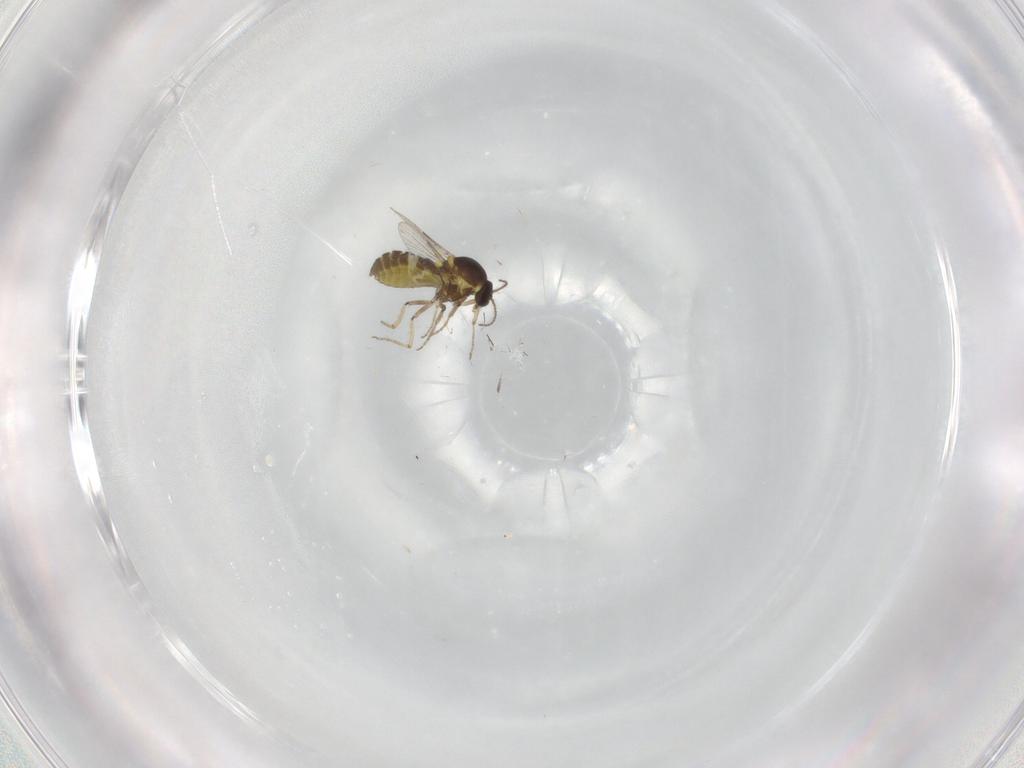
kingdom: Animalia
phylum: Arthropoda
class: Insecta
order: Diptera
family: Ceratopogonidae
